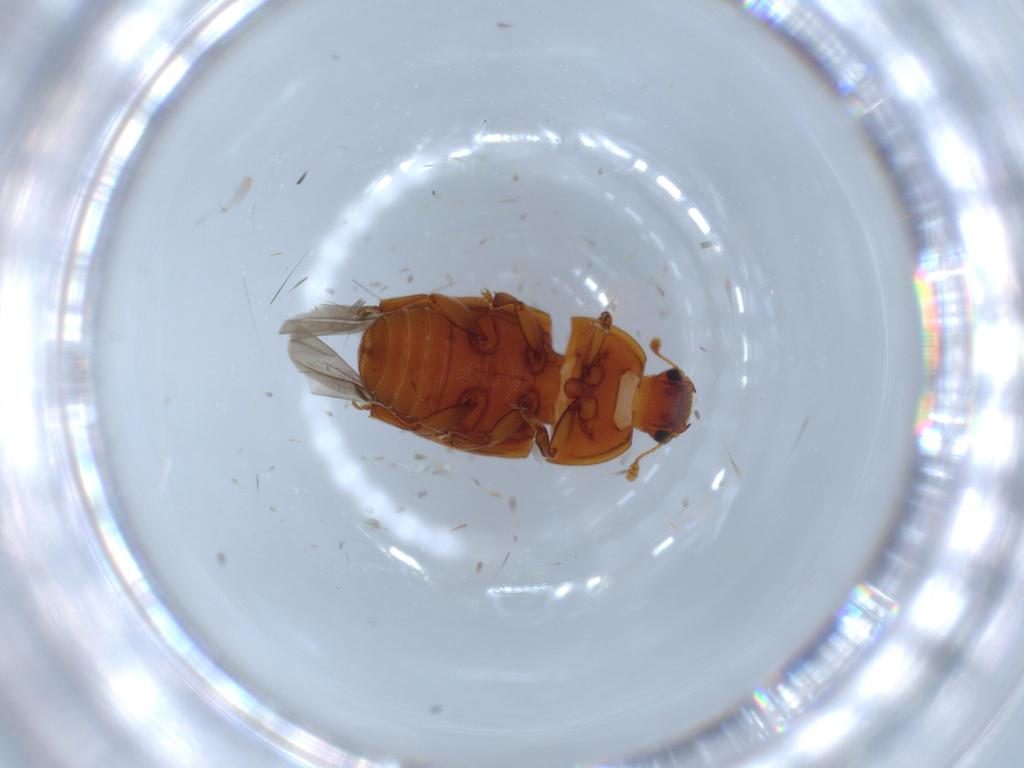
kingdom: Animalia
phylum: Arthropoda
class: Insecta
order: Coleoptera
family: Nitidulidae
